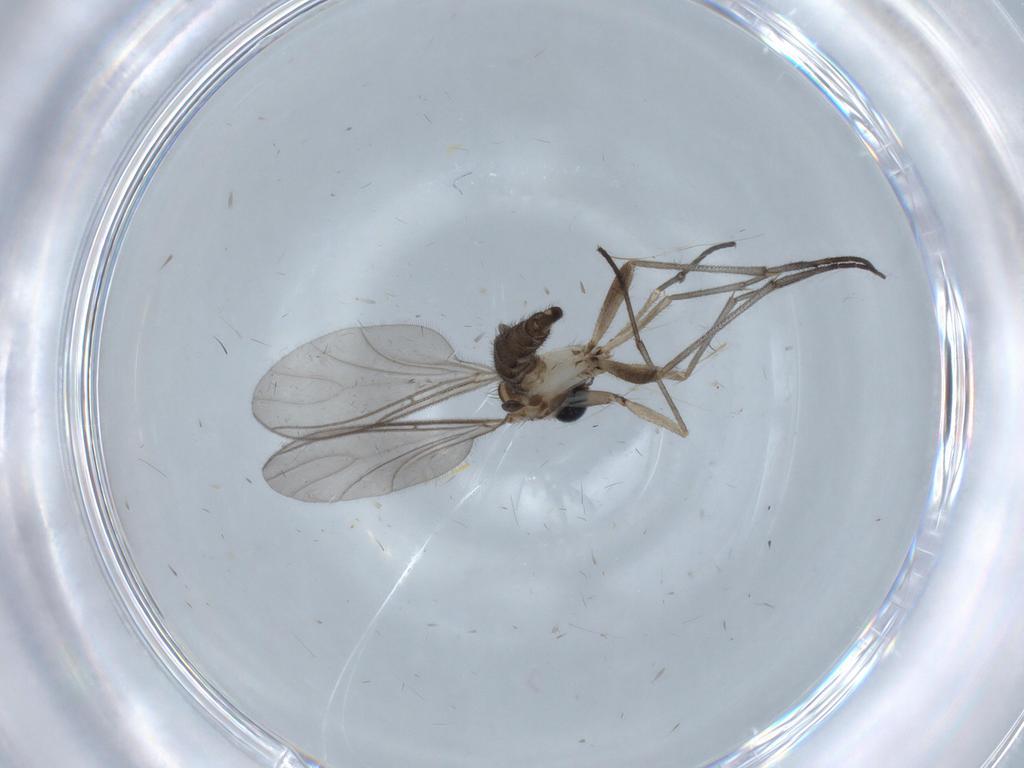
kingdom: Animalia
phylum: Arthropoda
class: Insecta
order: Diptera
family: Sciaridae
